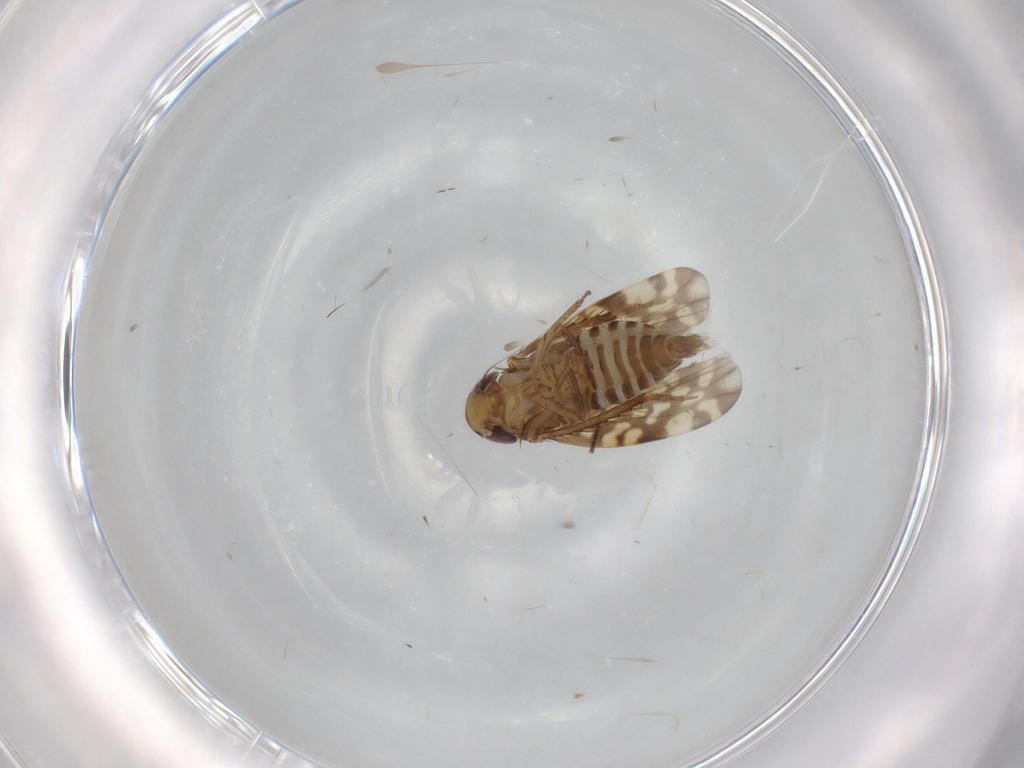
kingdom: Animalia
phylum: Arthropoda
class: Insecta
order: Hemiptera
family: Cicadellidae
